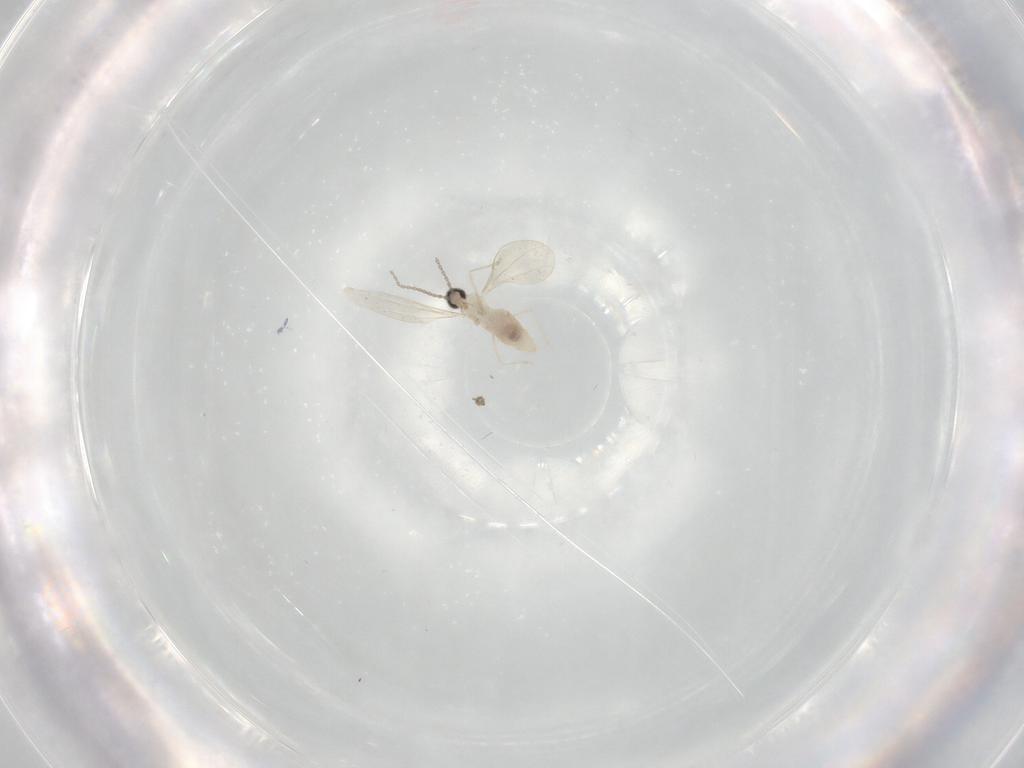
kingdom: Animalia
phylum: Arthropoda
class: Insecta
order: Diptera
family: Cecidomyiidae
